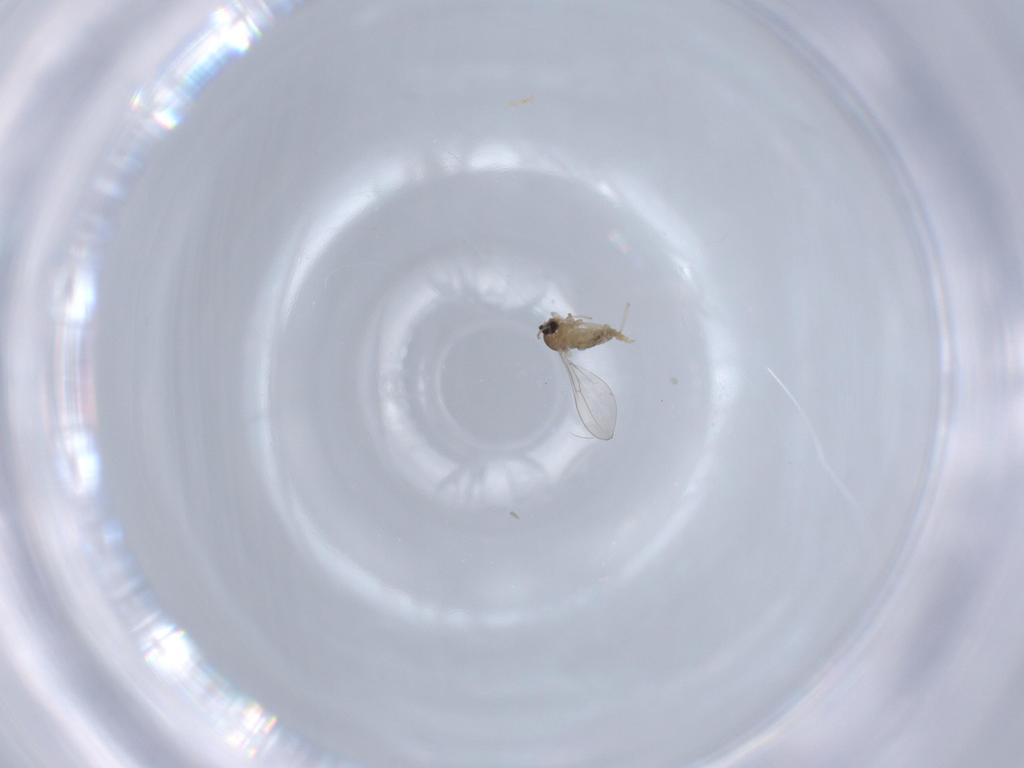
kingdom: Animalia
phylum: Arthropoda
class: Insecta
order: Diptera
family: Cecidomyiidae
